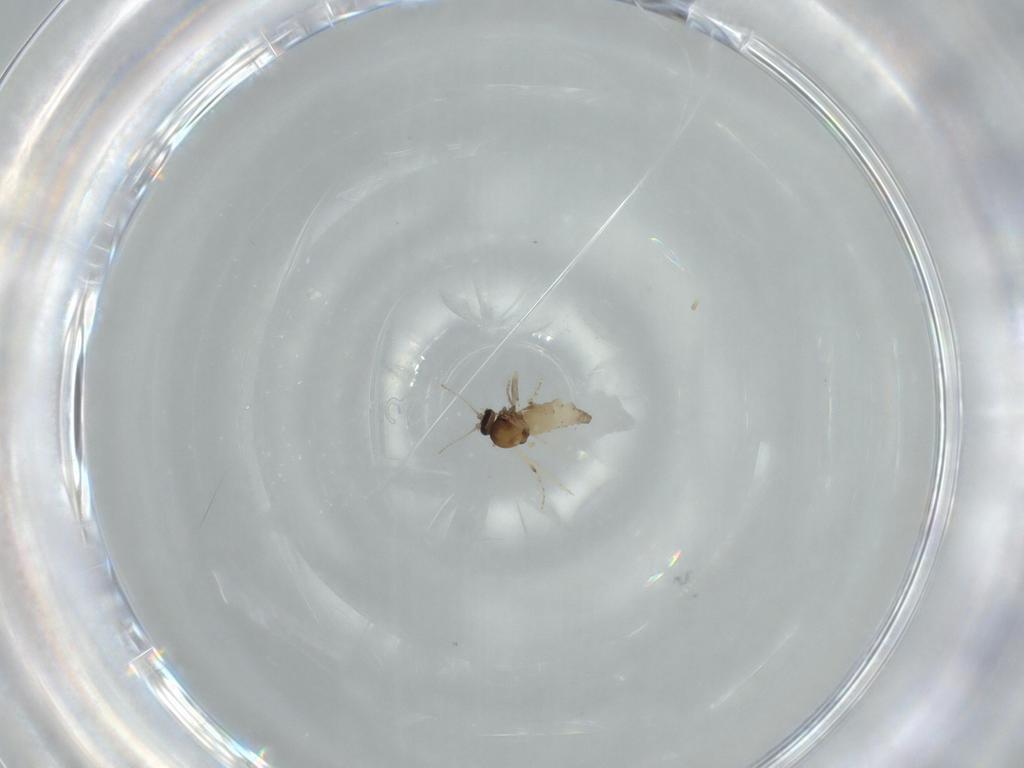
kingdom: Animalia
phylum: Arthropoda
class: Insecta
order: Diptera
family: Ceratopogonidae
